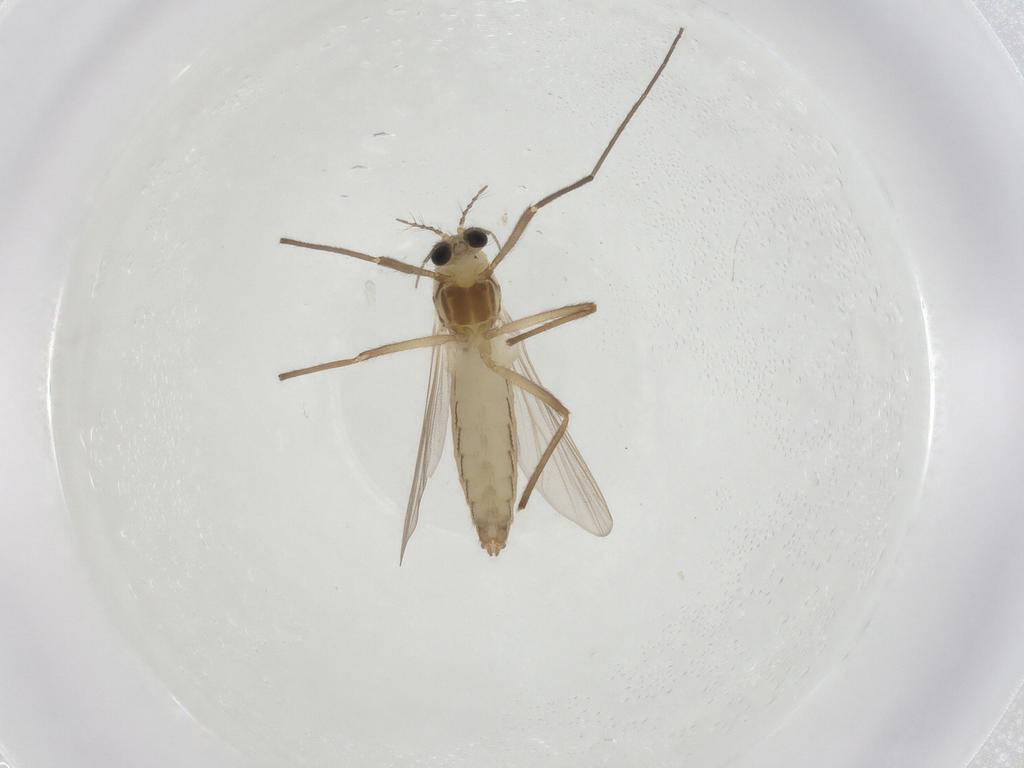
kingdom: Animalia
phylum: Arthropoda
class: Insecta
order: Diptera
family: Chironomidae
